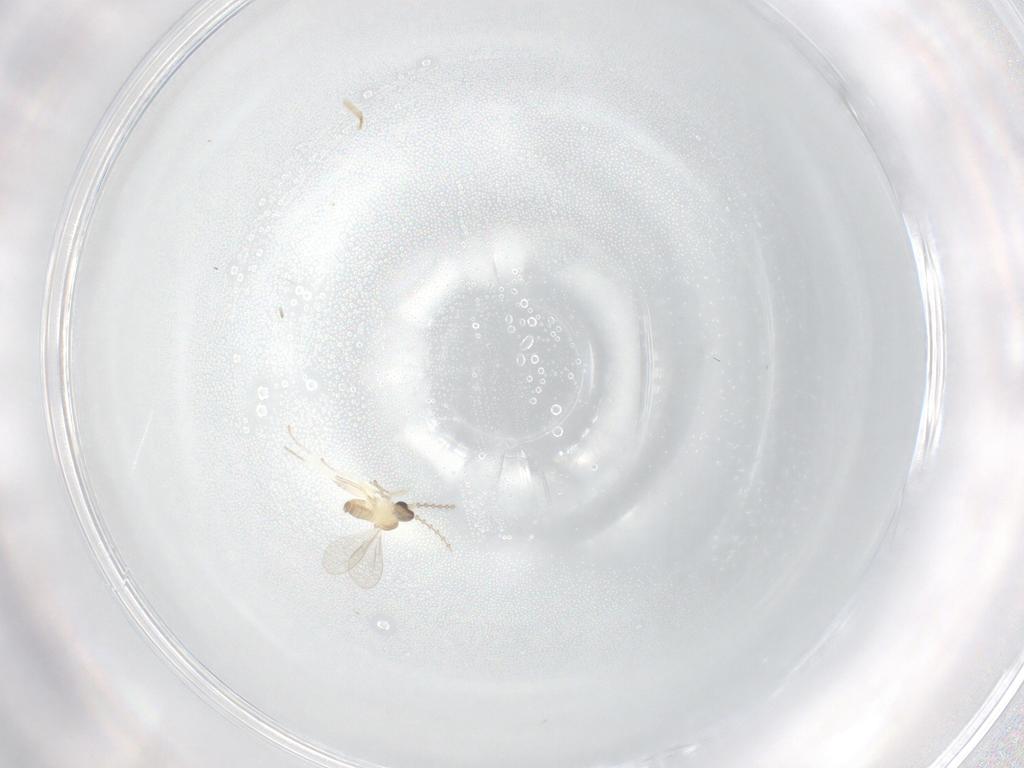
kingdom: Animalia
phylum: Arthropoda
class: Insecta
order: Diptera
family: Cecidomyiidae
